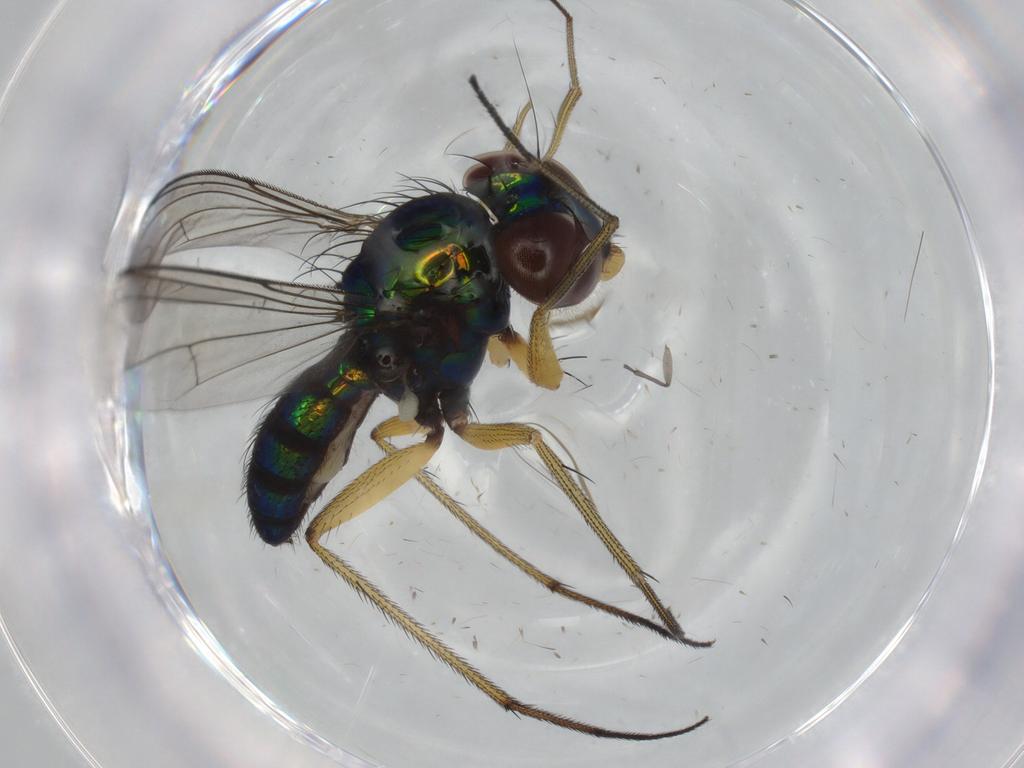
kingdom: Animalia
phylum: Arthropoda
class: Insecta
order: Diptera
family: Dolichopodidae
